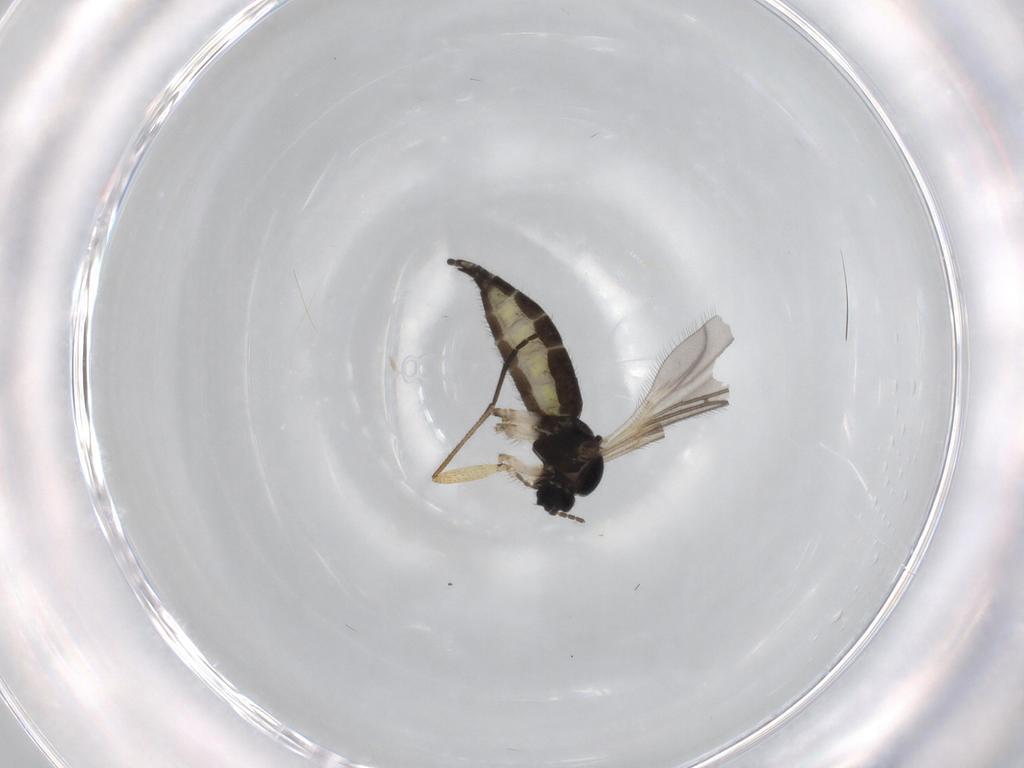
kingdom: Animalia
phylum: Arthropoda
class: Insecta
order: Diptera
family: Sciaridae
